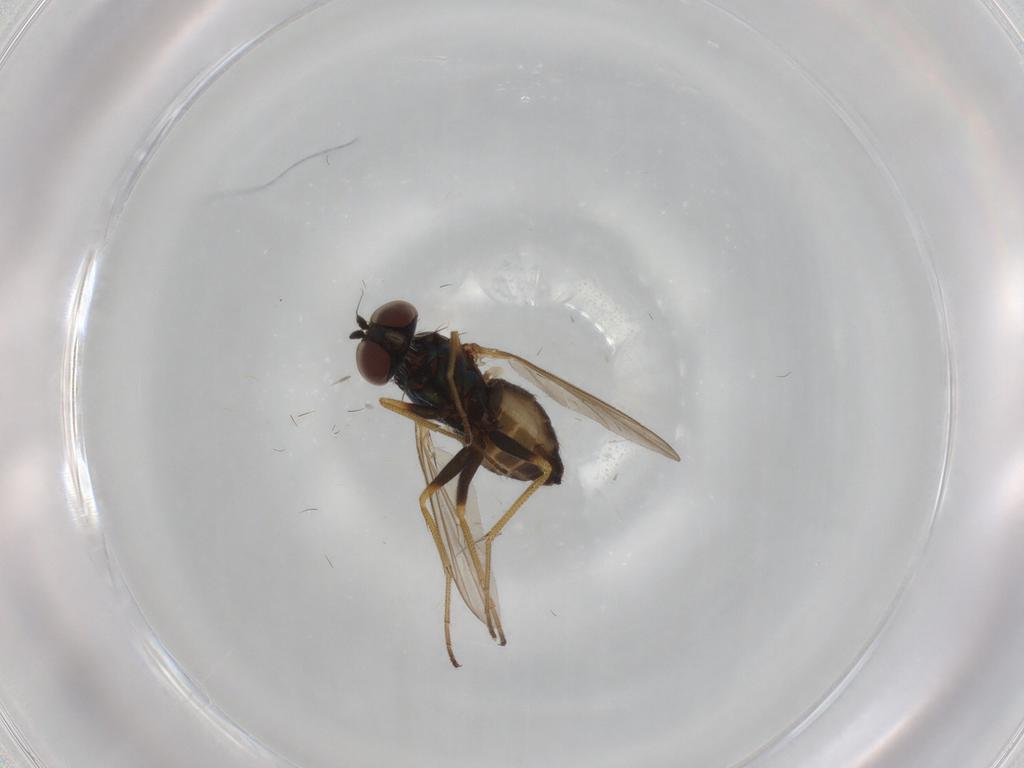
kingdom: Animalia
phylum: Arthropoda
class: Insecta
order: Diptera
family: Dolichopodidae
